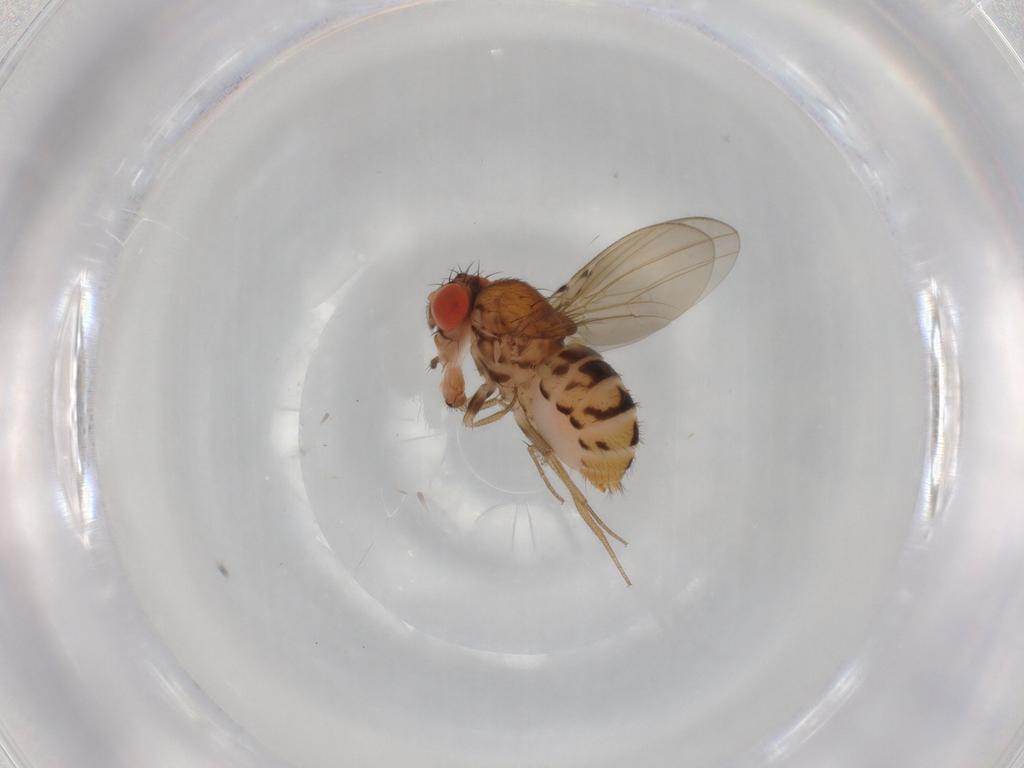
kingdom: Animalia
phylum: Arthropoda
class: Insecta
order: Diptera
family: Drosophilidae
